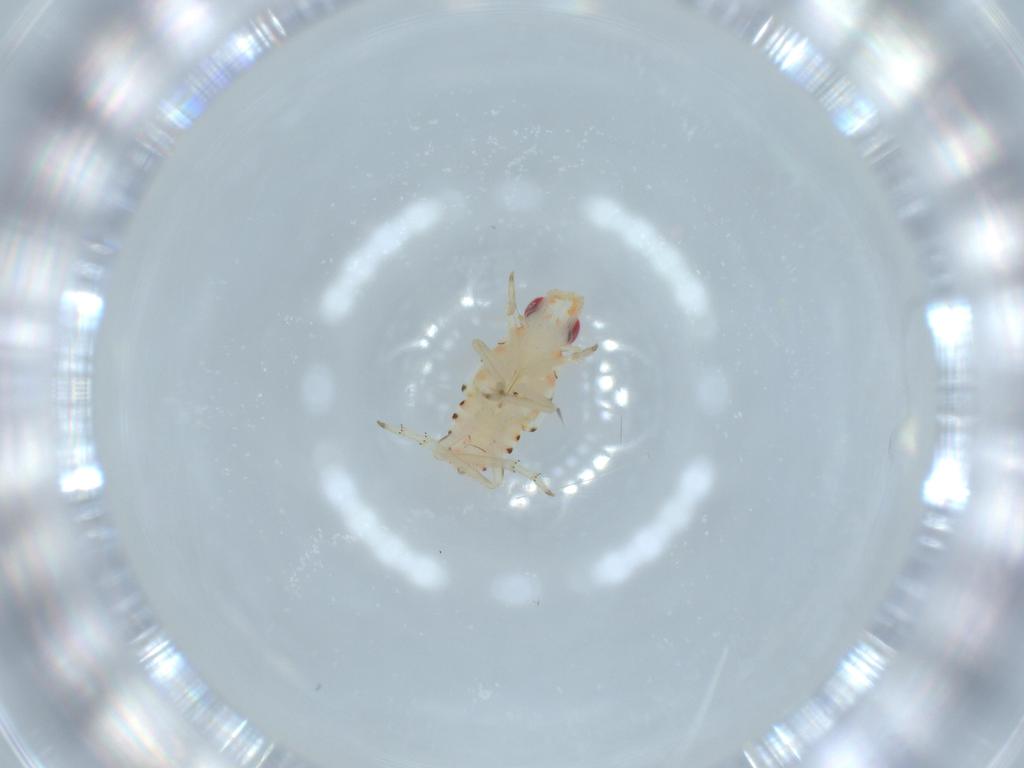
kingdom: Animalia
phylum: Arthropoda
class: Insecta
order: Hemiptera
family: Tropiduchidae
